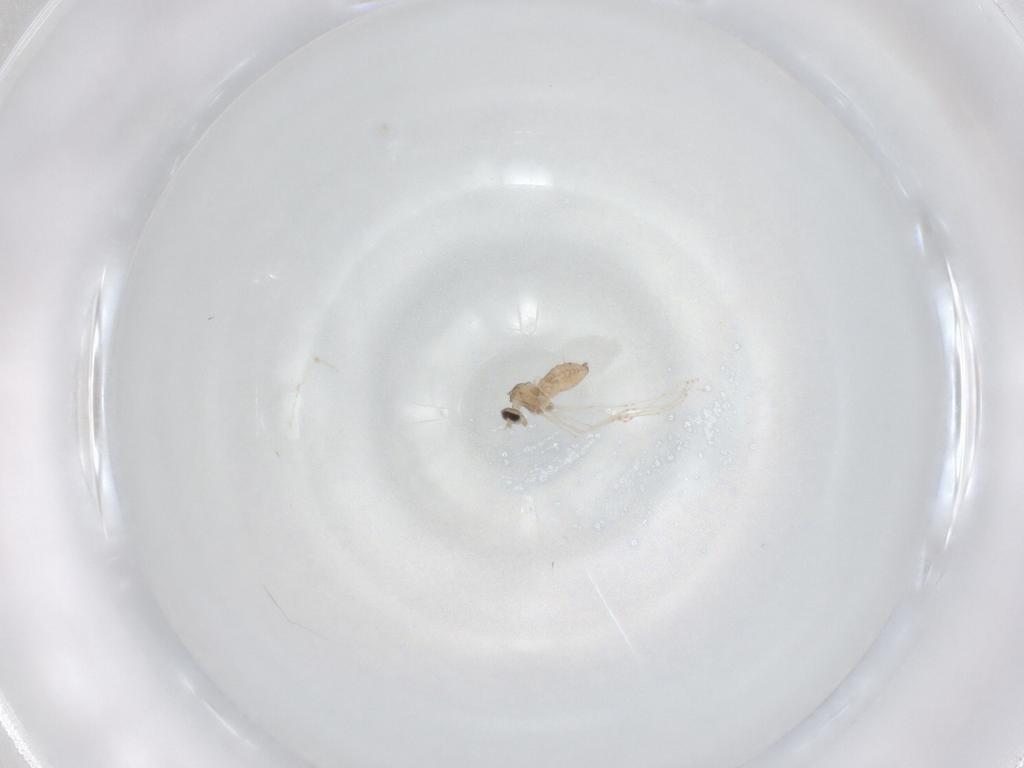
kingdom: Animalia
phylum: Arthropoda
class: Insecta
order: Diptera
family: Cecidomyiidae
